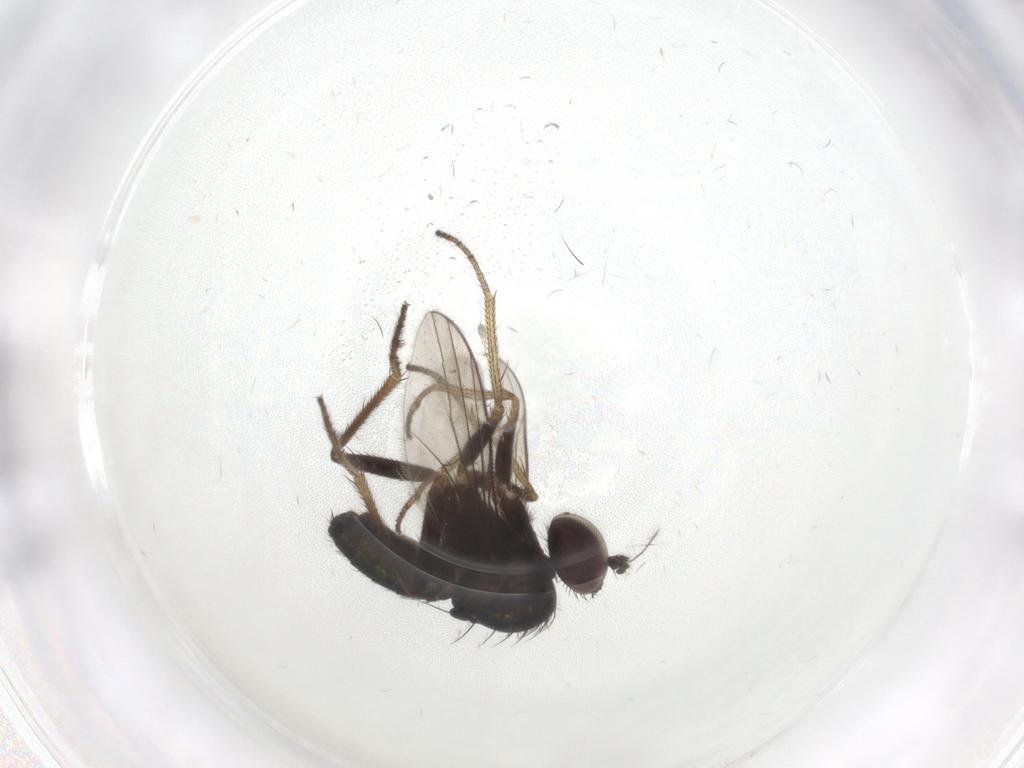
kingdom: Animalia
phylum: Arthropoda
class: Insecta
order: Diptera
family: Dolichopodidae
